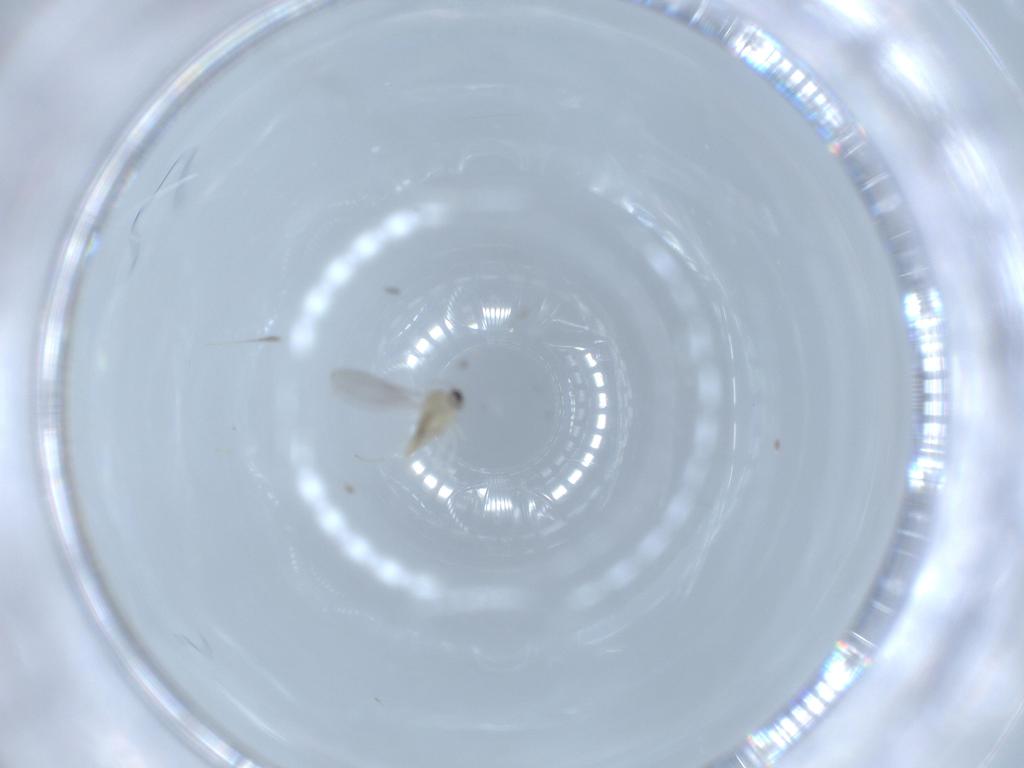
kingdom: Animalia
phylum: Arthropoda
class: Insecta
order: Diptera
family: Cecidomyiidae
